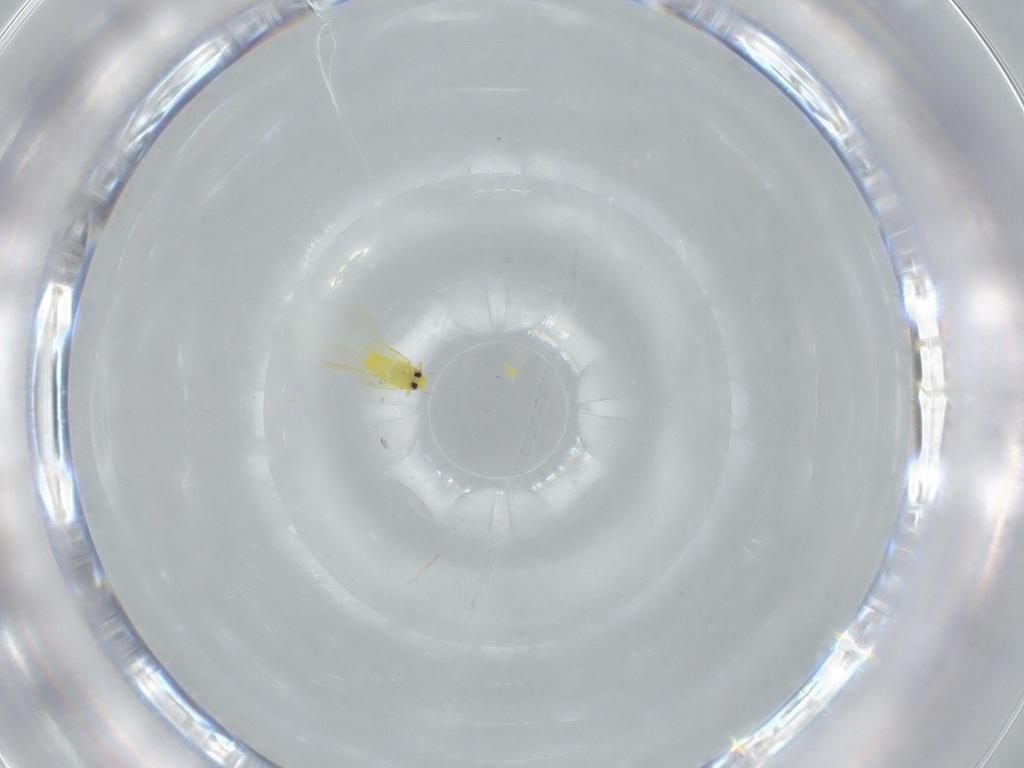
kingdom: Animalia
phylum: Arthropoda
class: Insecta
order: Hemiptera
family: Aleyrodidae
